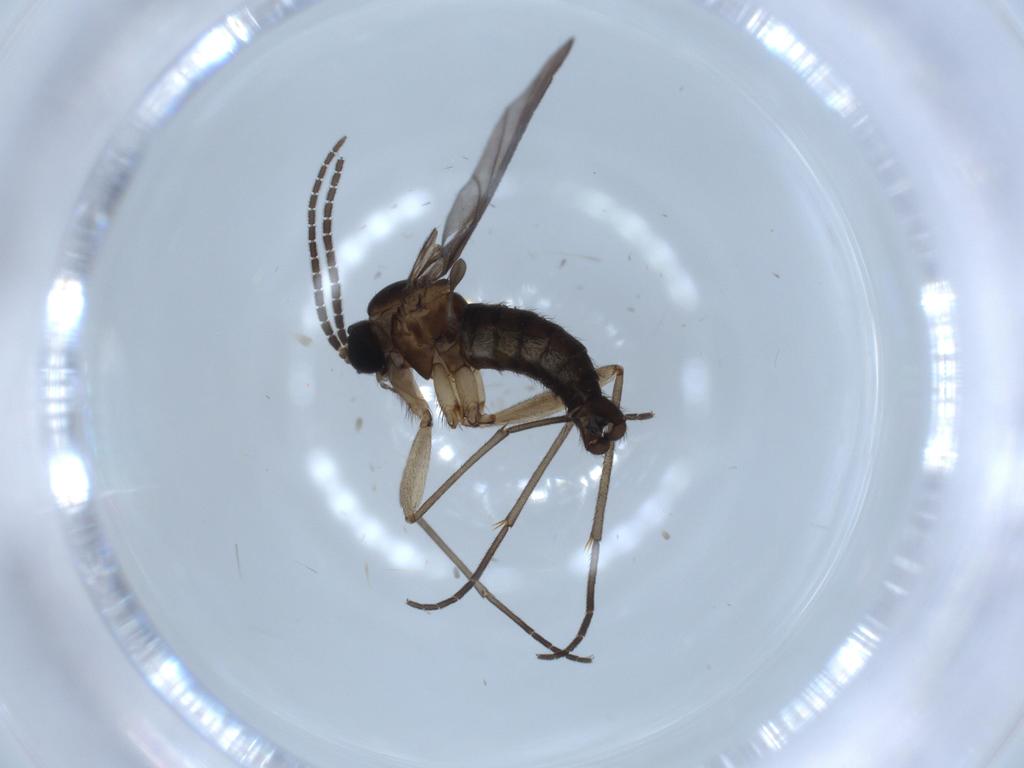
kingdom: Animalia
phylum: Arthropoda
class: Insecta
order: Diptera
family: Sciaridae
